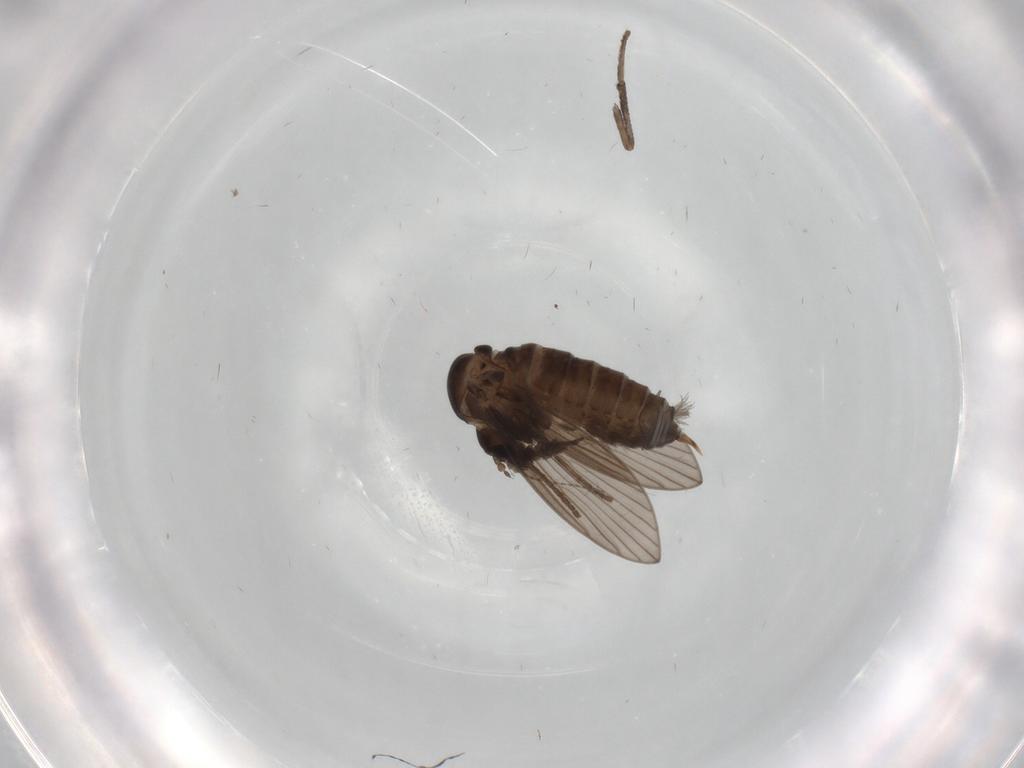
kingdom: Animalia
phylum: Arthropoda
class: Insecta
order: Diptera
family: Psychodidae
